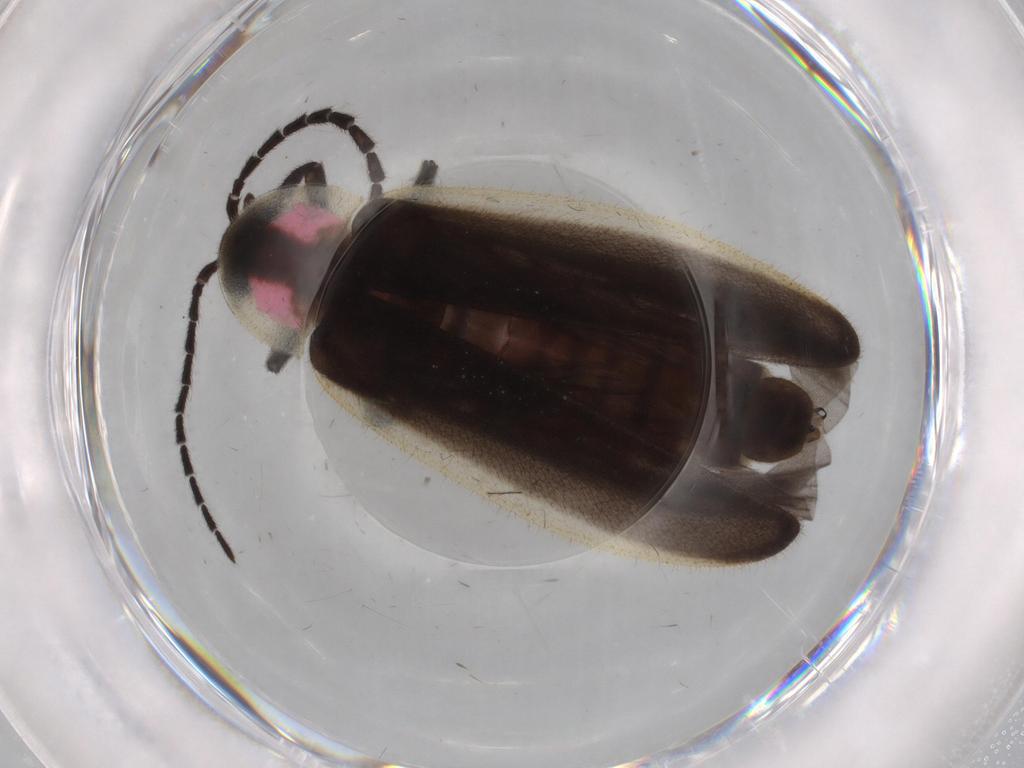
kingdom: Animalia
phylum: Arthropoda
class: Insecta
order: Coleoptera
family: Lampyridae
